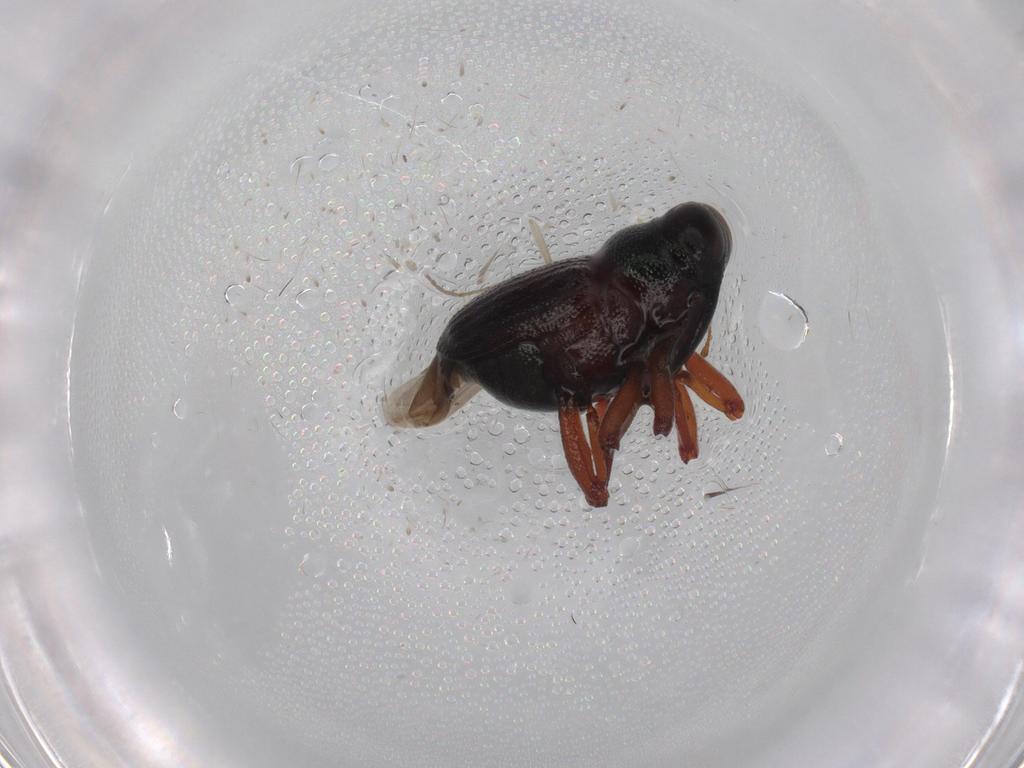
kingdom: Animalia
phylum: Arthropoda
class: Insecta
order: Coleoptera
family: Curculionidae
